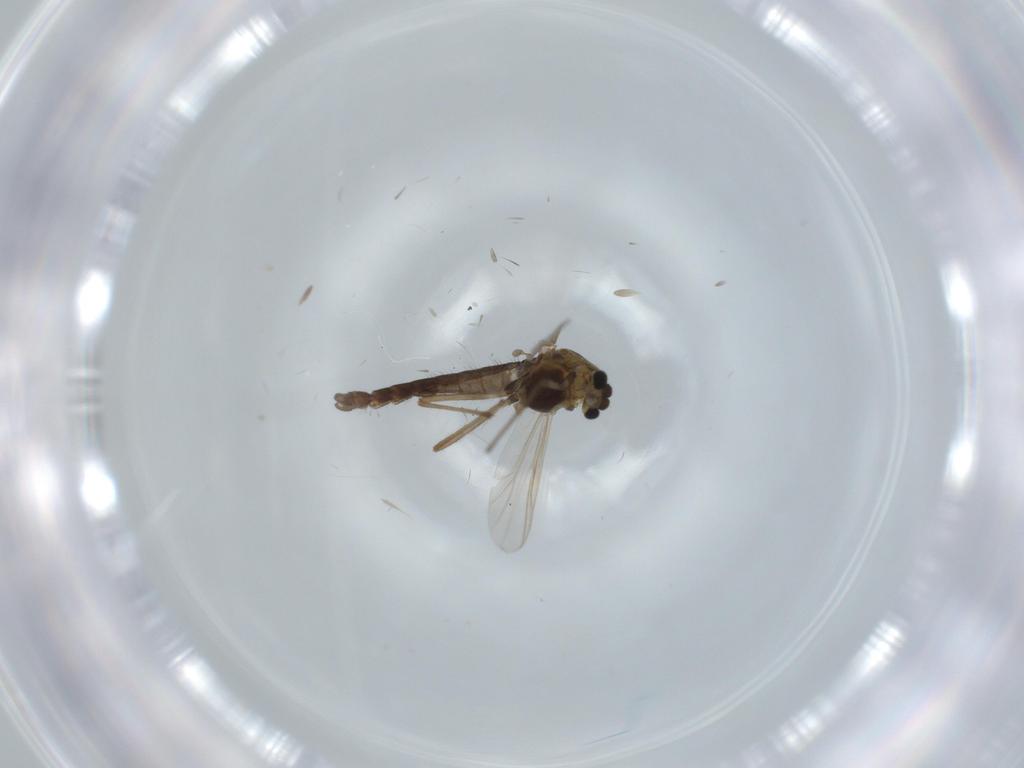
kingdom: Animalia
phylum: Arthropoda
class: Insecta
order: Diptera
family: Chironomidae
